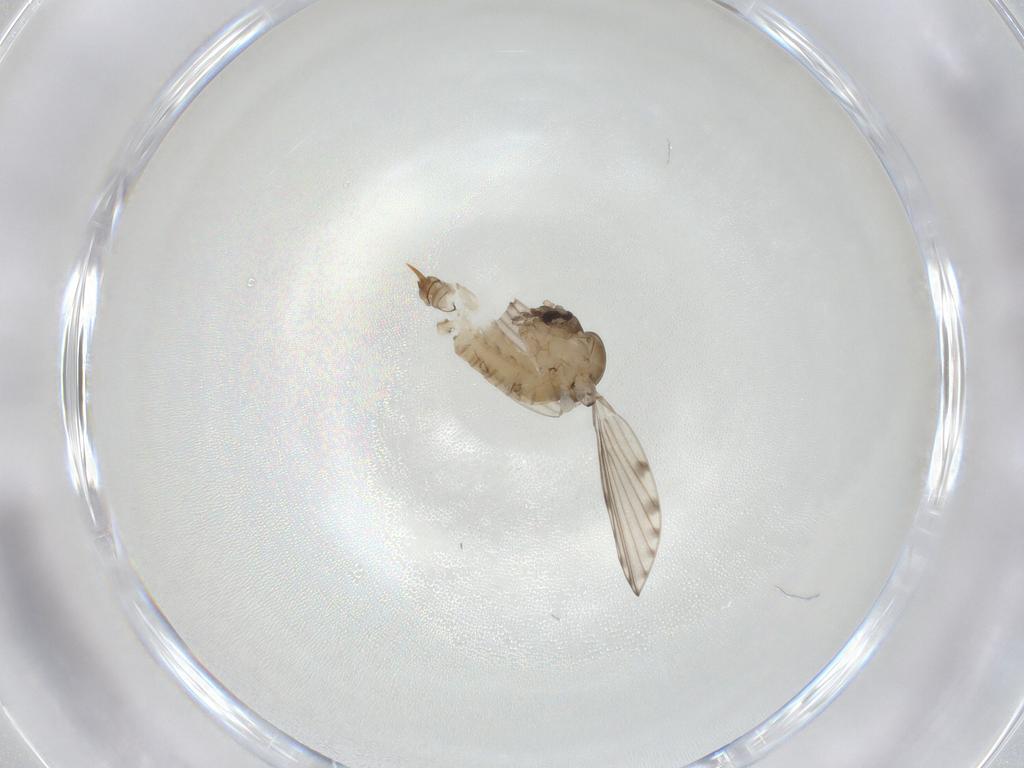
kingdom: Animalia
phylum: Arthropoda
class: Insecta
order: Diptera
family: Psychodidae
